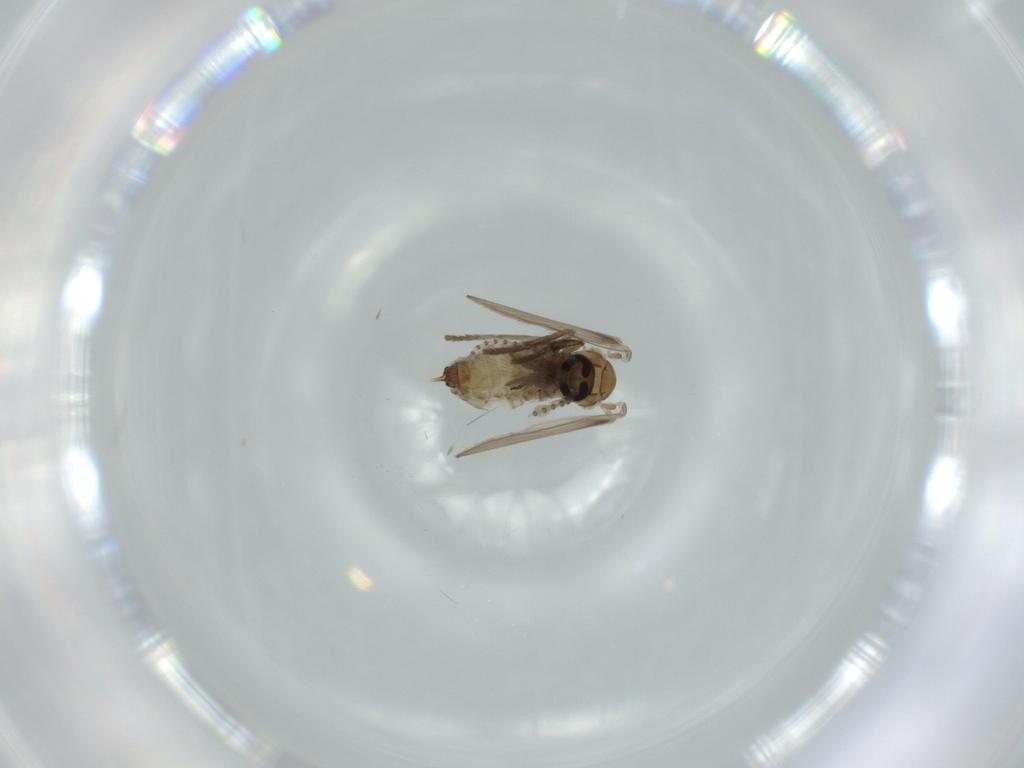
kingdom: Animalia
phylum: Arthropoda
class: Insecta
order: Diptera
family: Psychodidae
